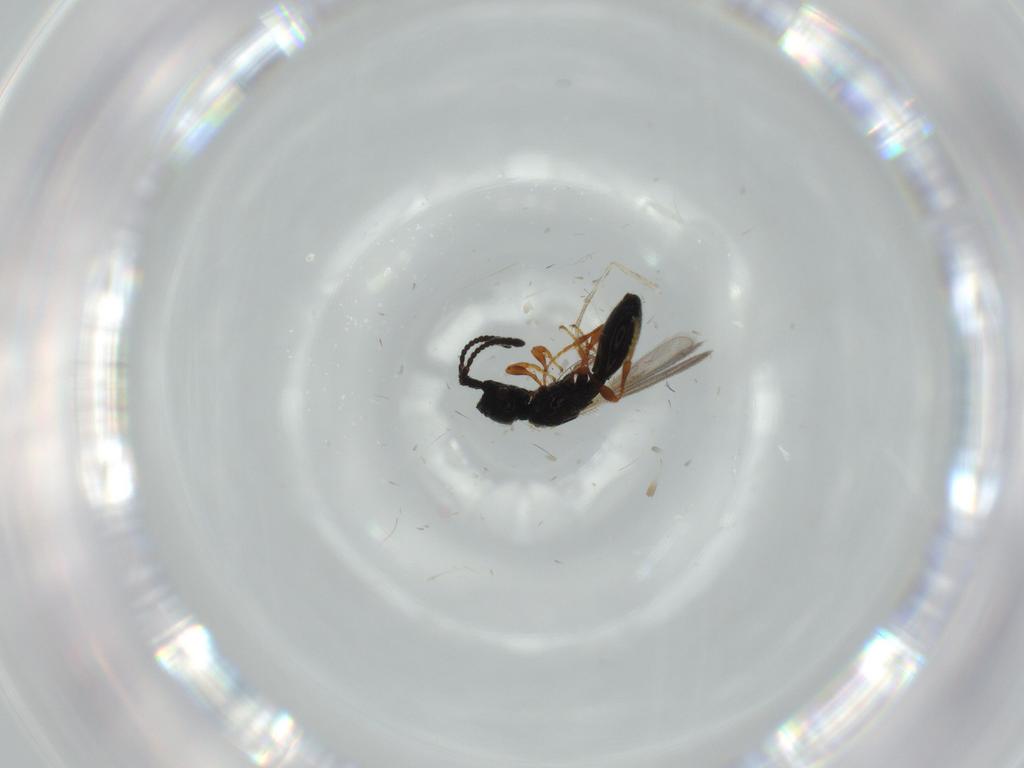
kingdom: Animalia
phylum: Arthropoda
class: Insecta
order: Hymenoptera
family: Diapriidae
